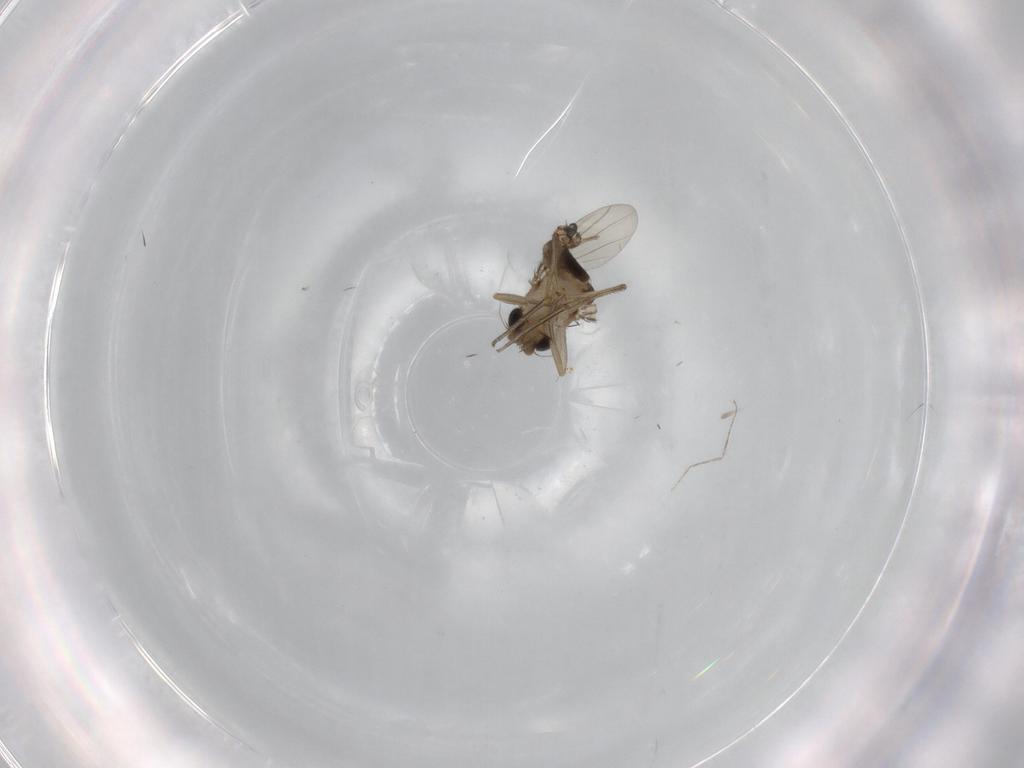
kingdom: Animalia
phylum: Arthropoda
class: Insecta
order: Diptera
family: Phoridae
